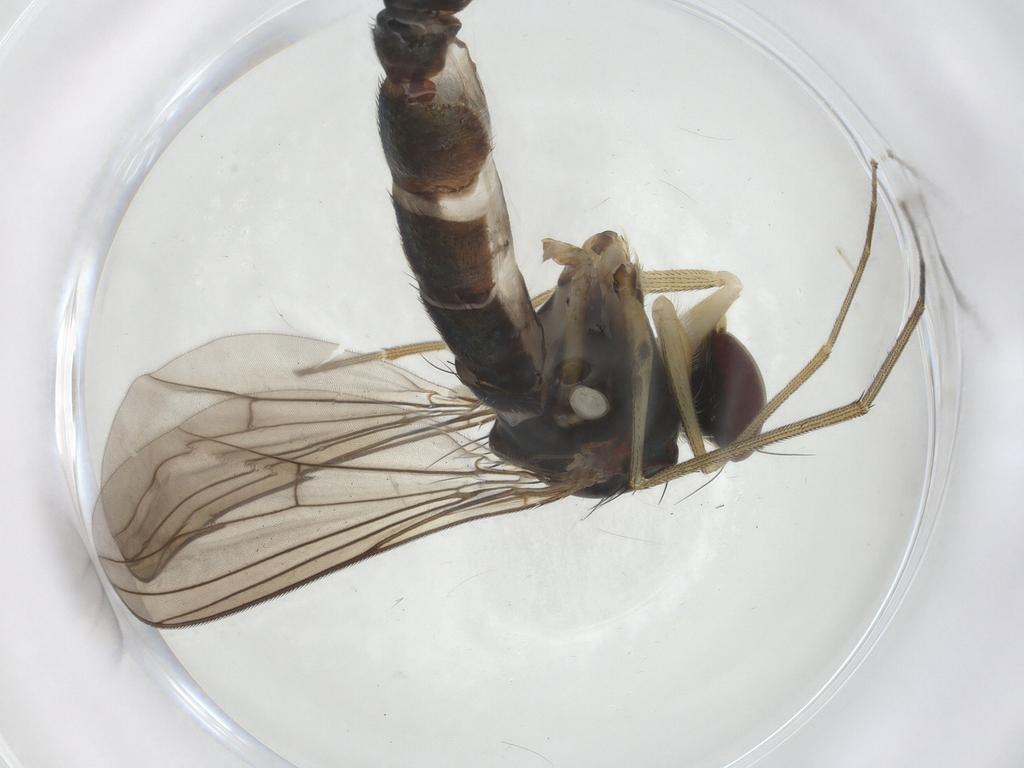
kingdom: Animalia
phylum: Arthropoda
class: Insecta
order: Diptera
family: Dolichopodidae
